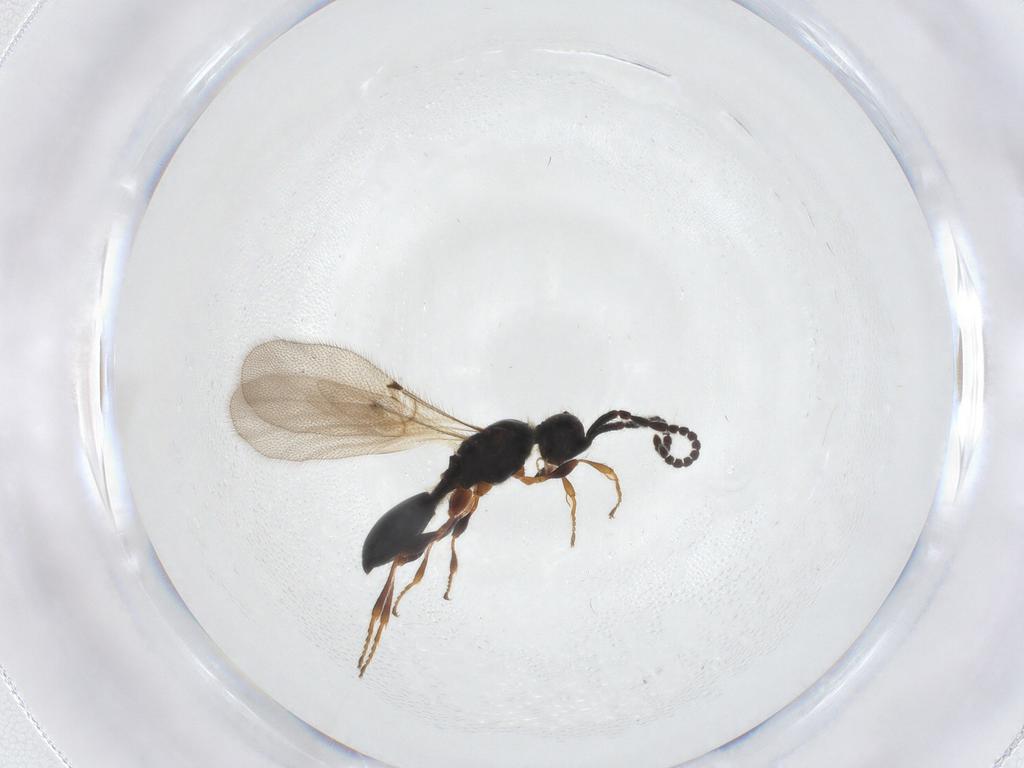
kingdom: Animalia
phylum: Arthropoda
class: Insecta
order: Hymenoptera
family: Diapriidae
